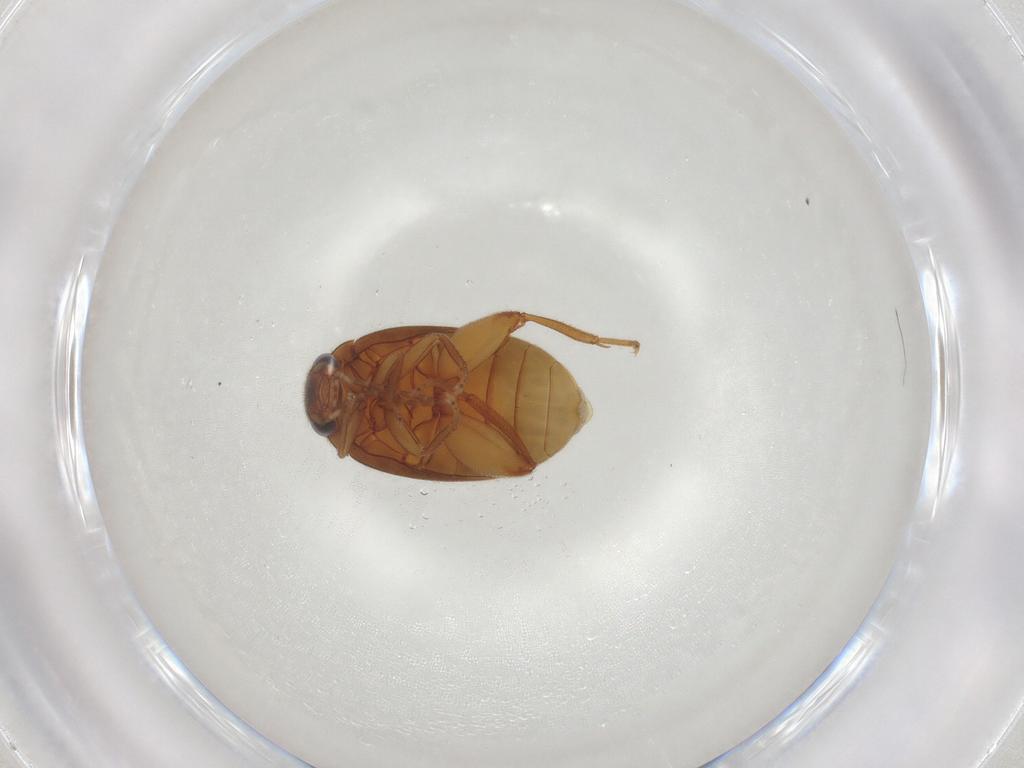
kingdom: Animalia
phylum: Arthropoda
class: Insecta
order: Coleoptera
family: Scirtidae
